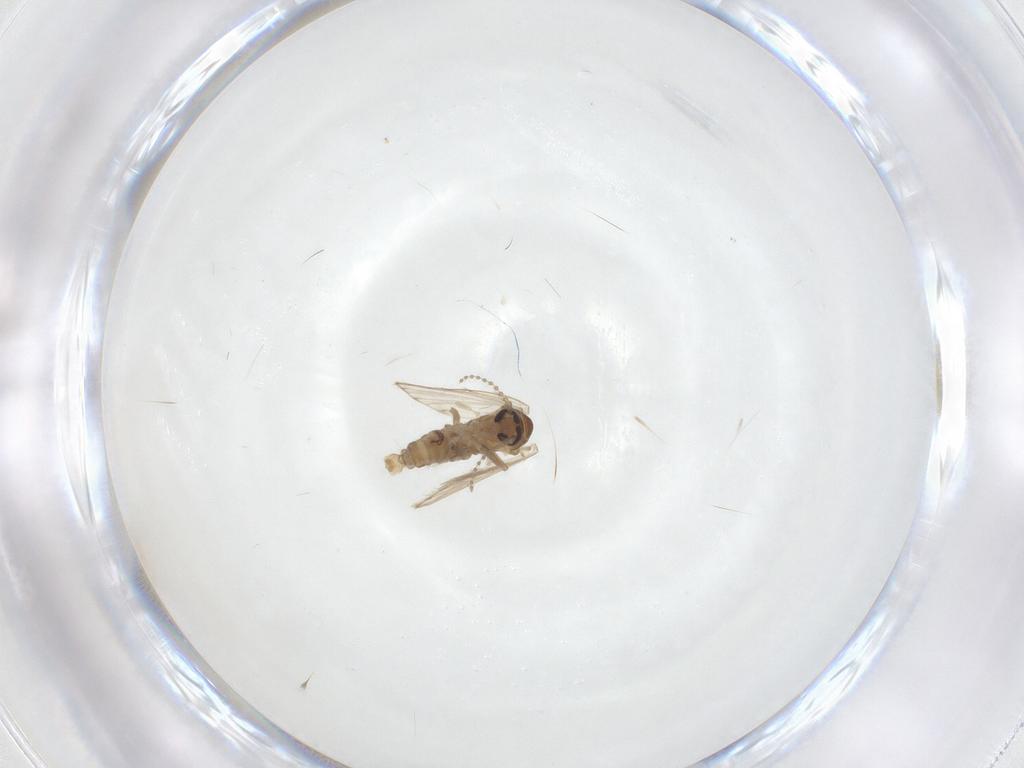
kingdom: Animalia
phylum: Arthropoda
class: Insecta
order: Diptera
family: Psychodidae
